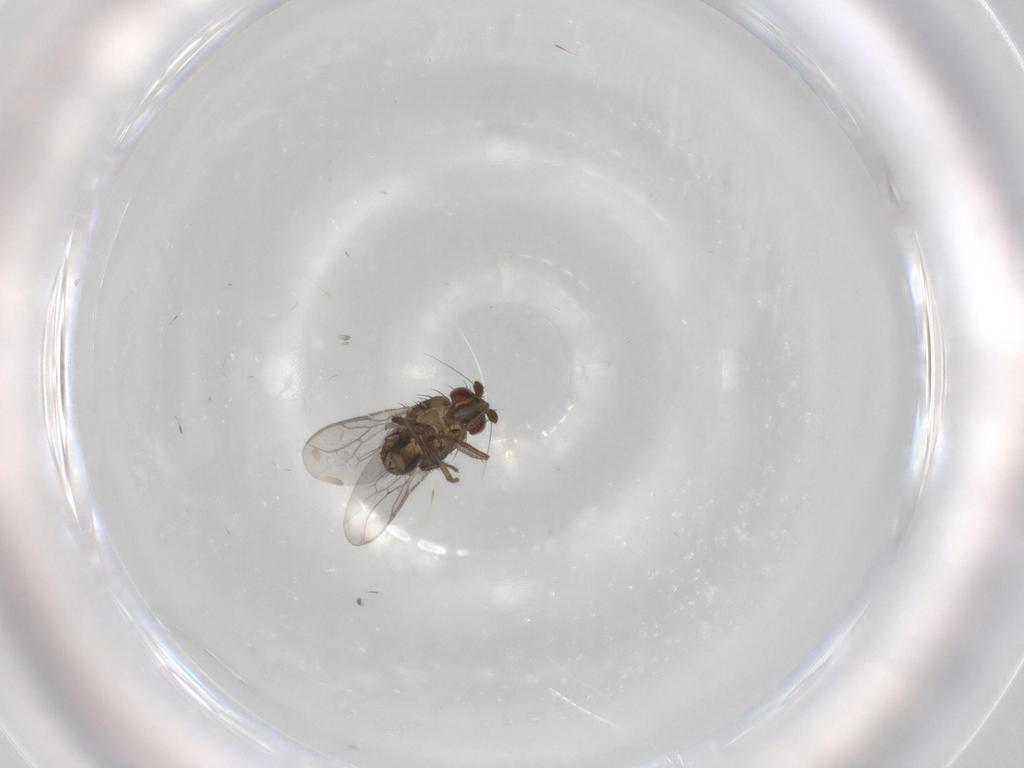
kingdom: Animalia
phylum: Arthropoda
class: Insecta
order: Diptera
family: Sphaeroceridae
